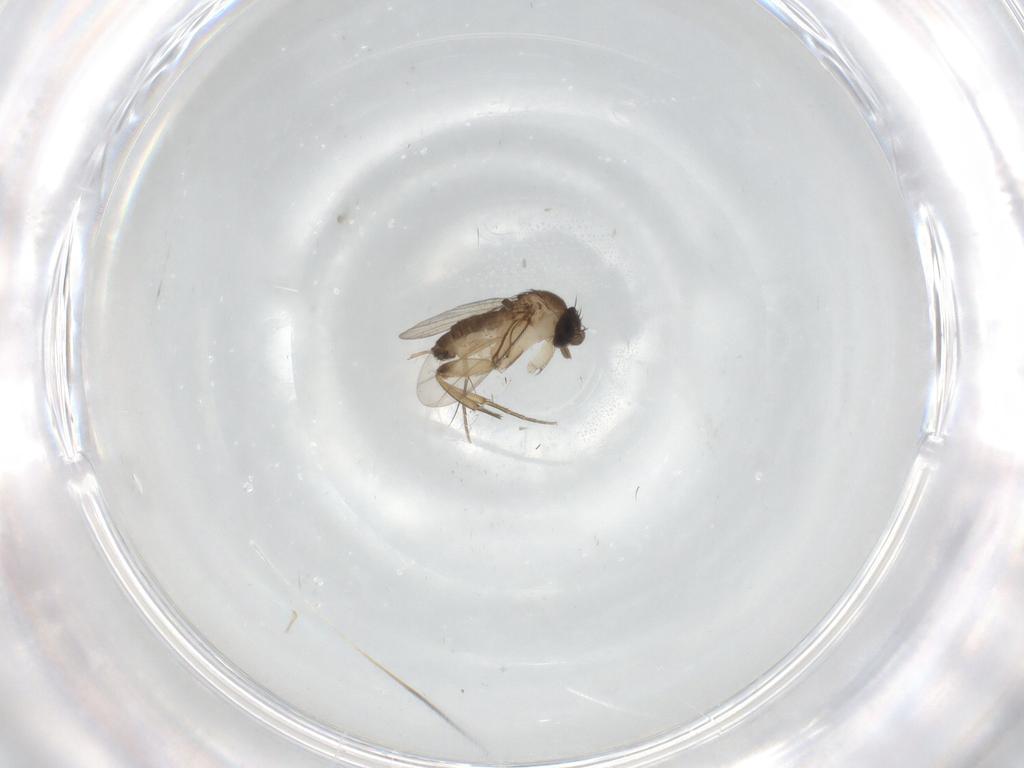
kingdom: Animalia
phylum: Arthropoda
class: Insecta
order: Diptera
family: Phoridae
